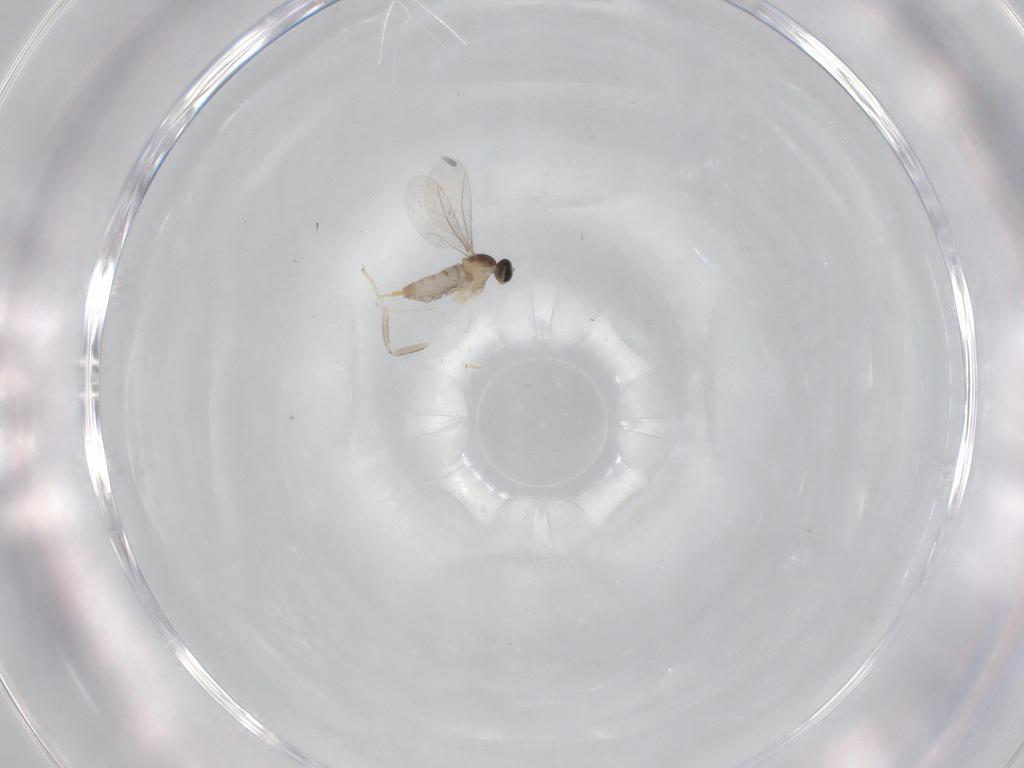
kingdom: Animalia
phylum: Arthropoda
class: Insecta
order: Diptera
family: Cecidomyiidae
